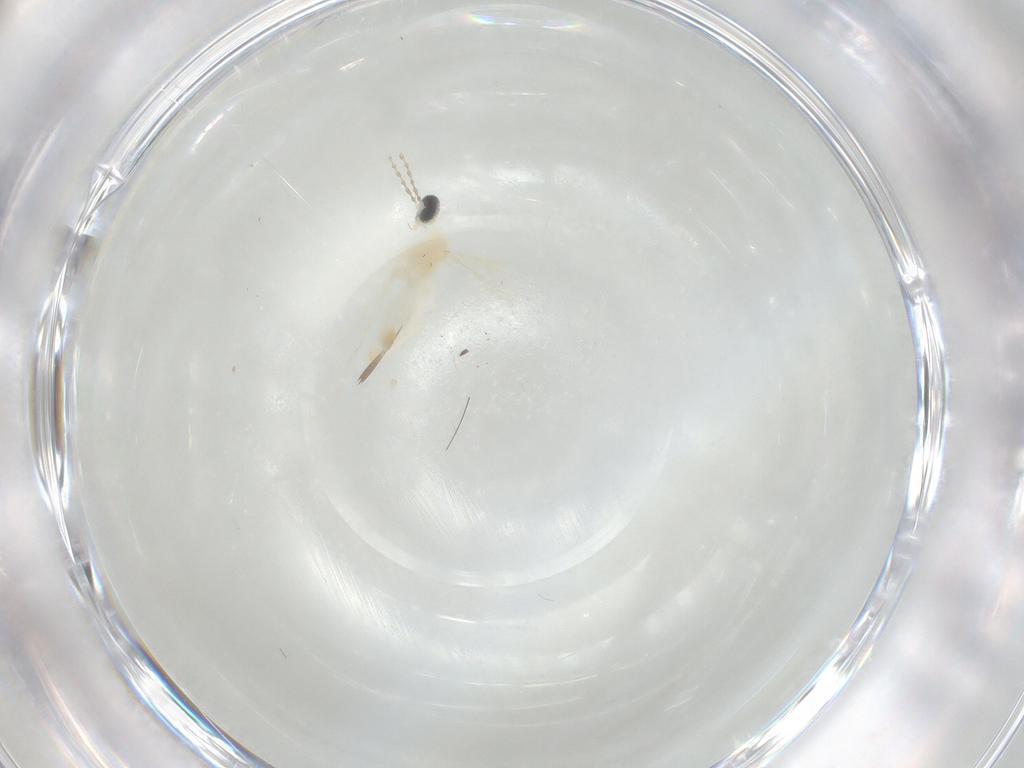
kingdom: Animalia
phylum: Arthropoda
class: Insecta
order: Diptera
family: Cecidomyiidae
